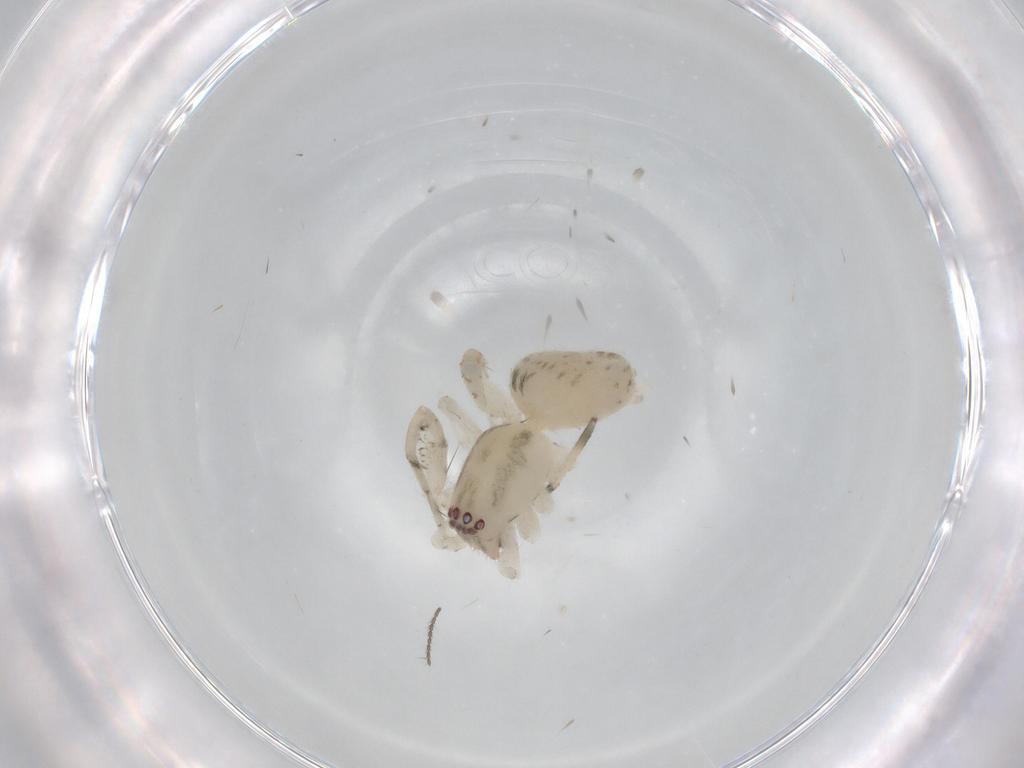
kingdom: Animalia
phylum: Arthropoda
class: Arachnida
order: Araneae
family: Anyphaenidae
